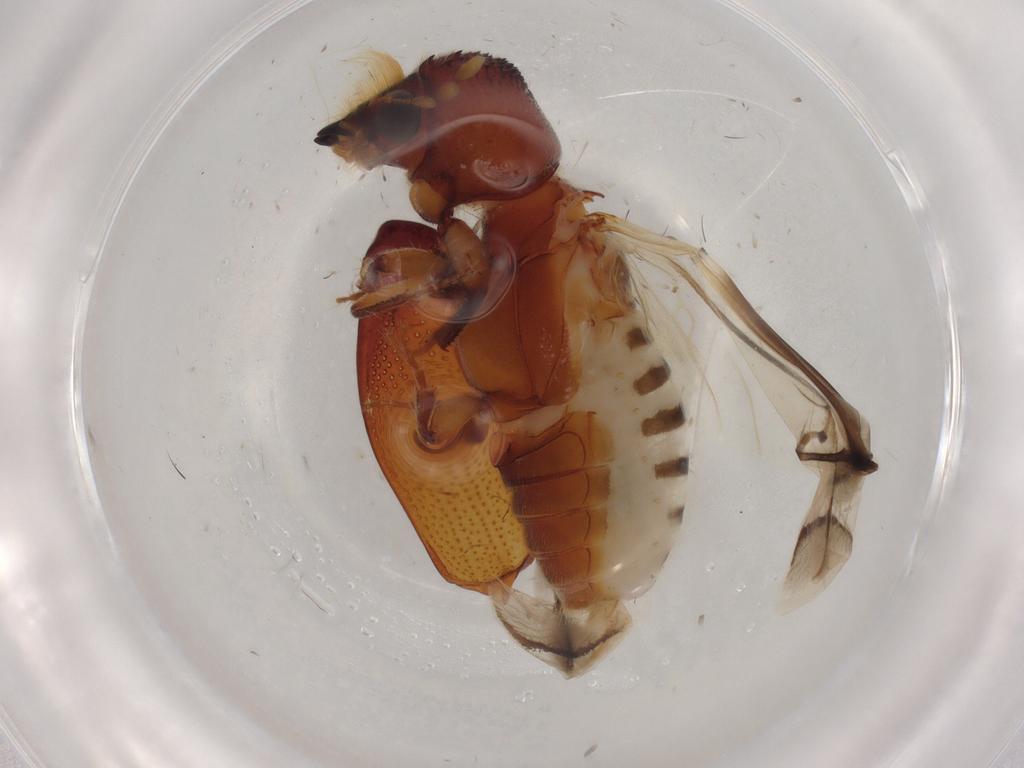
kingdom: Animalia
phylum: Arthropoda
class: Insecta
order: Coleoptera
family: Bostrichidae
